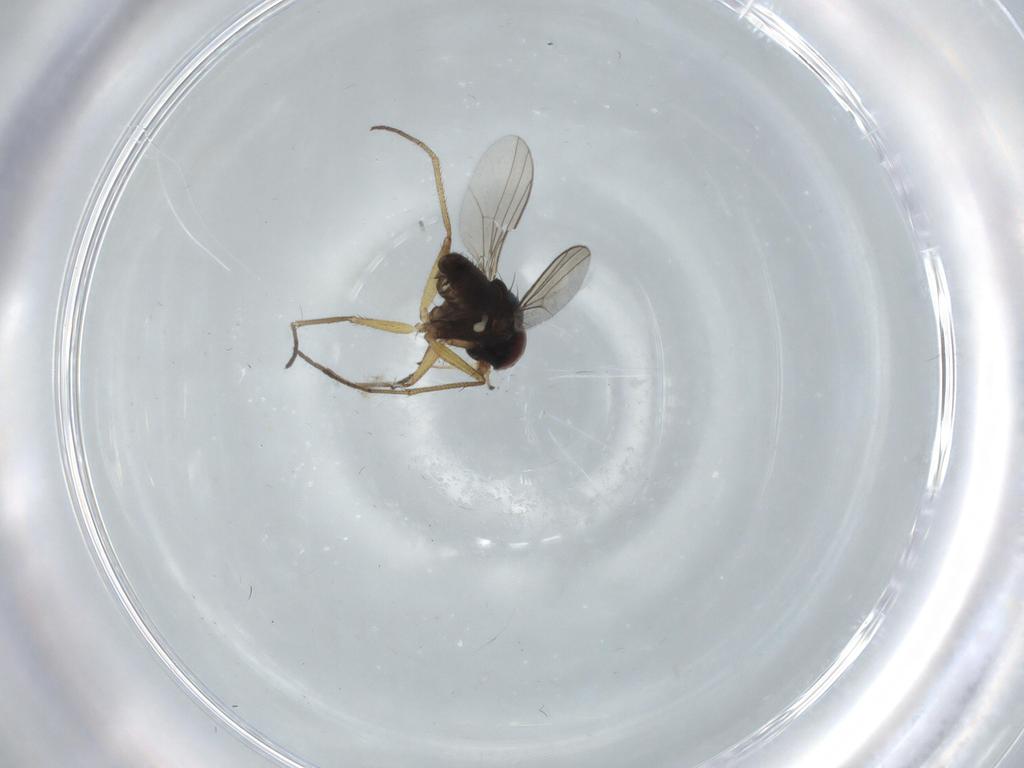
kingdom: Animalia
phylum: Arthropoda
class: Insecta
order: Diptera
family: Dolichopodidae
